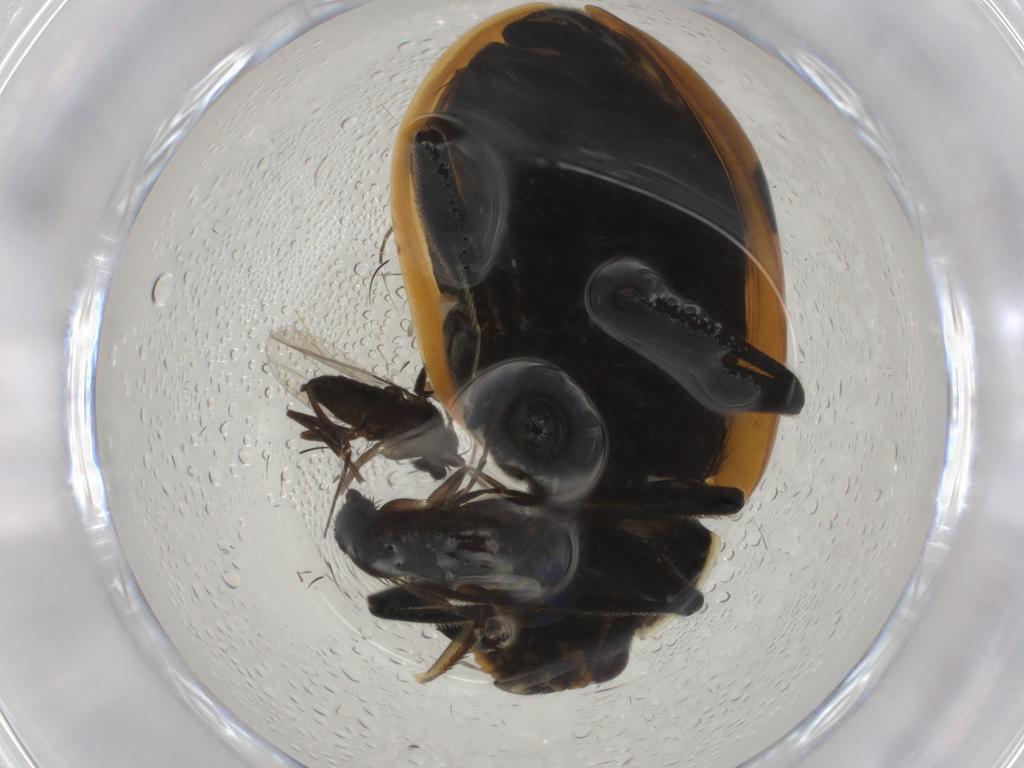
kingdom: Animalia
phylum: Arthropoda
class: Insecta
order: Coleoptera
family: Coccinellidae
